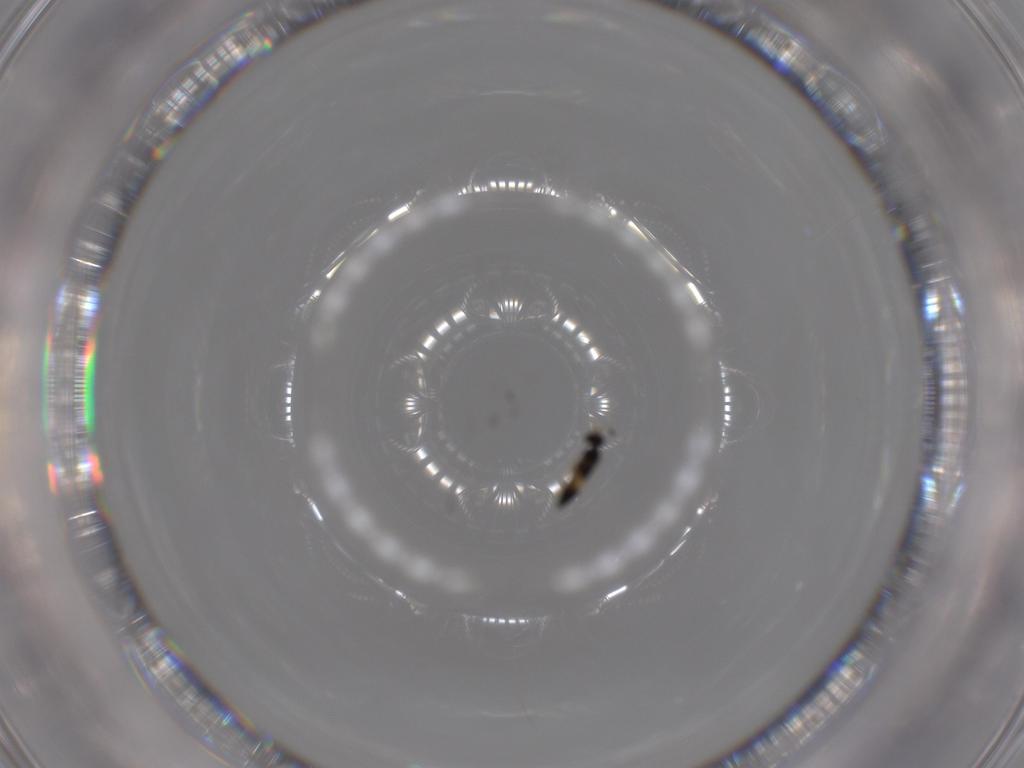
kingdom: Animalia
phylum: Arthropoda
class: Insecta
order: Hymenoptera
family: Eulophidae
